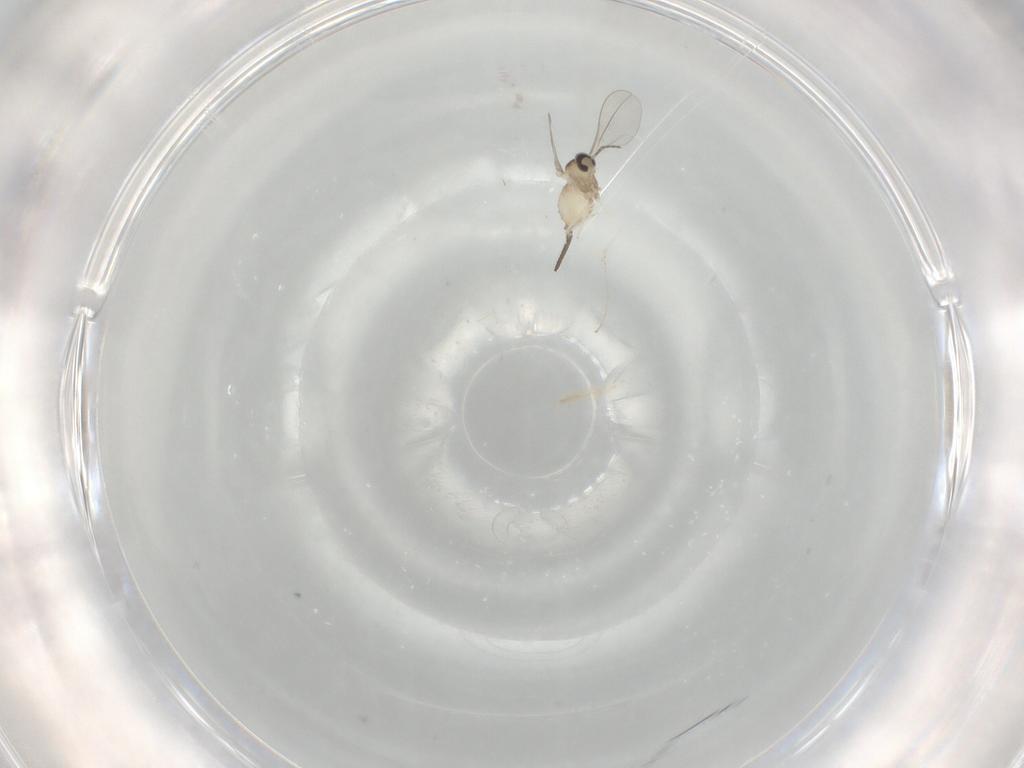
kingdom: Animalia
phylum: Arthropoda
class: Insecta
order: Diptera
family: Cecidomyiidae
